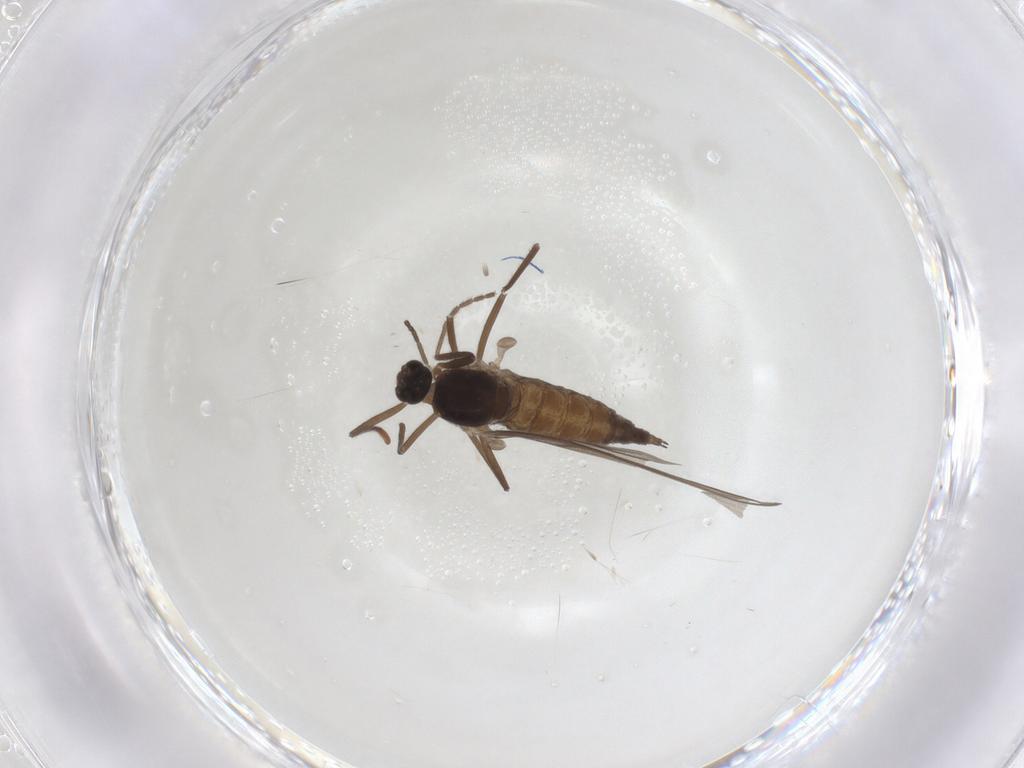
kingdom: Animalia
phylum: Arthropoda
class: Insecta
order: Diptera
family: Cecidomyiidae
